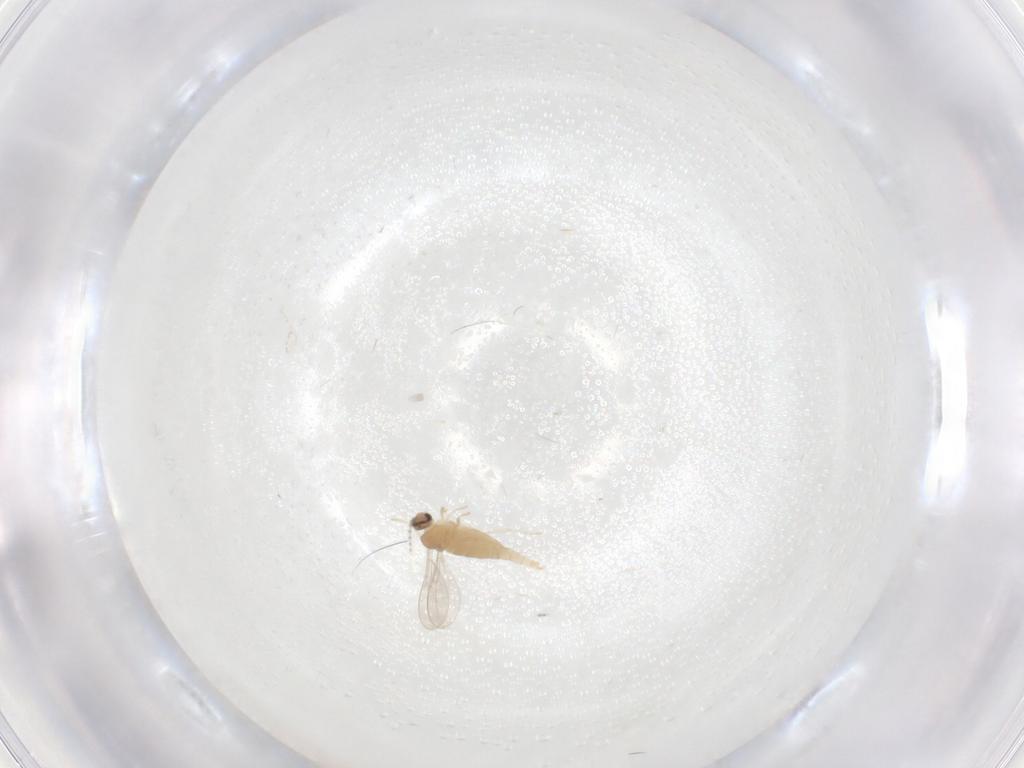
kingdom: Animalia
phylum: Arthropoda
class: Insecta
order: Diptera
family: Cecidomyiidae
